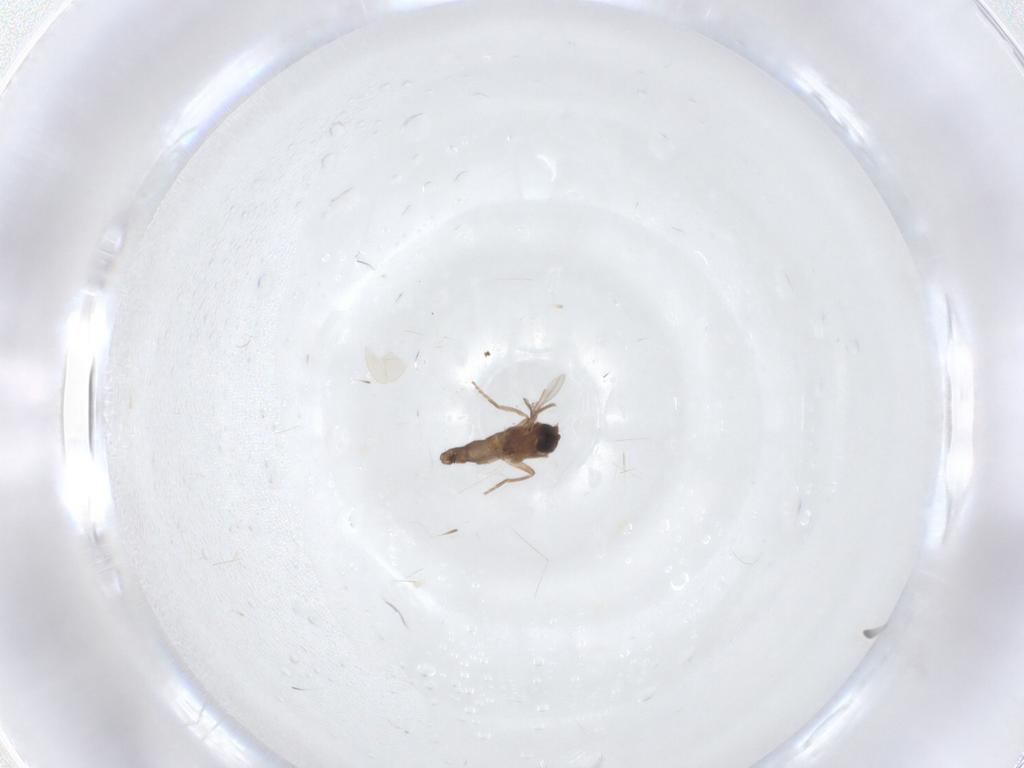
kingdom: Animalia
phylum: Arthropoda
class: Insecta
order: Diptera
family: Phoridae
